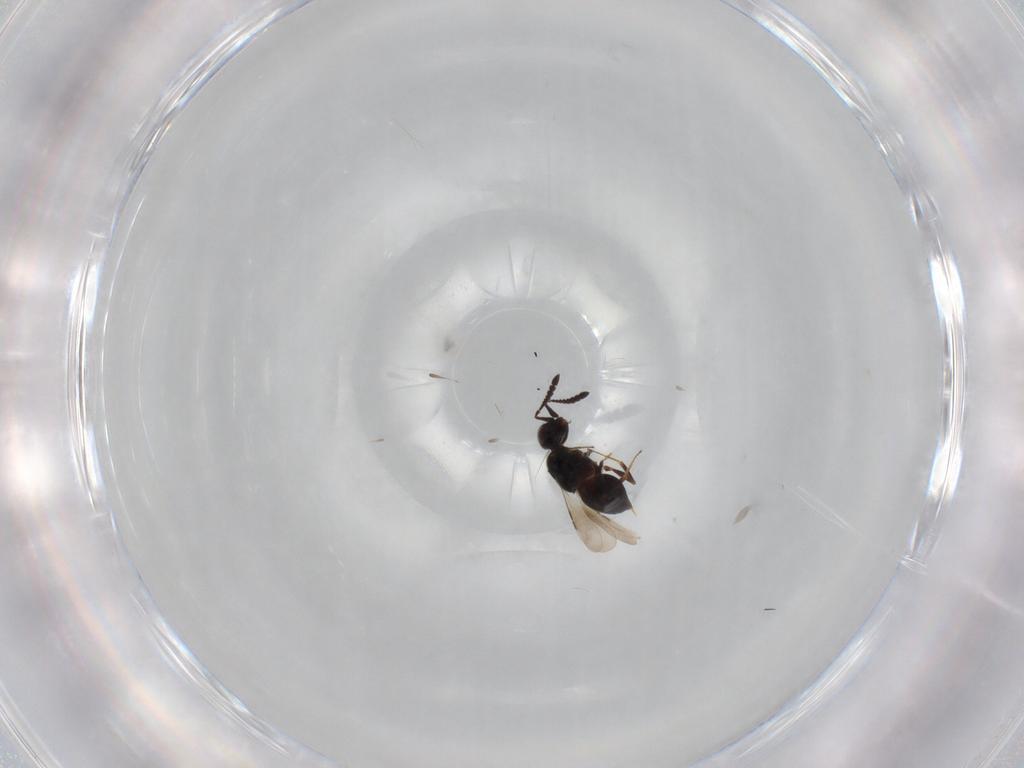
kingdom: Animalia
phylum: Arthropoda
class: Insecta
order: Hymenoptera
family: Ceraphronidae
